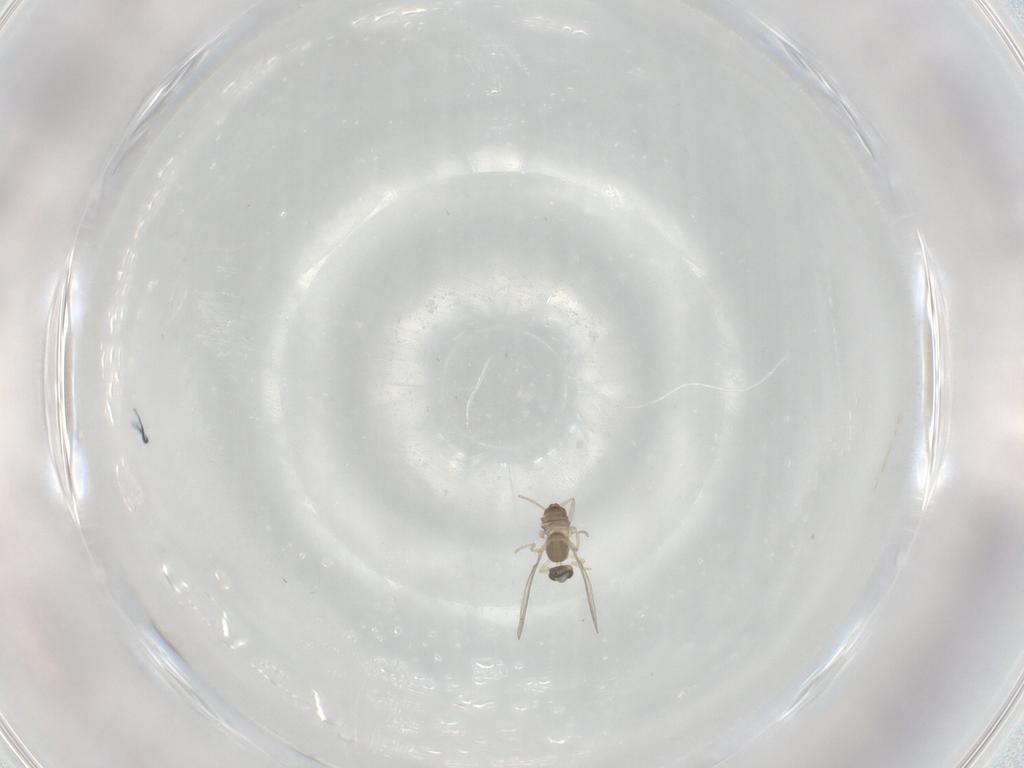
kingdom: Animalia
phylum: Arthropoda
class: Insecta
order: Diptera
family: Cecidomyiidae
